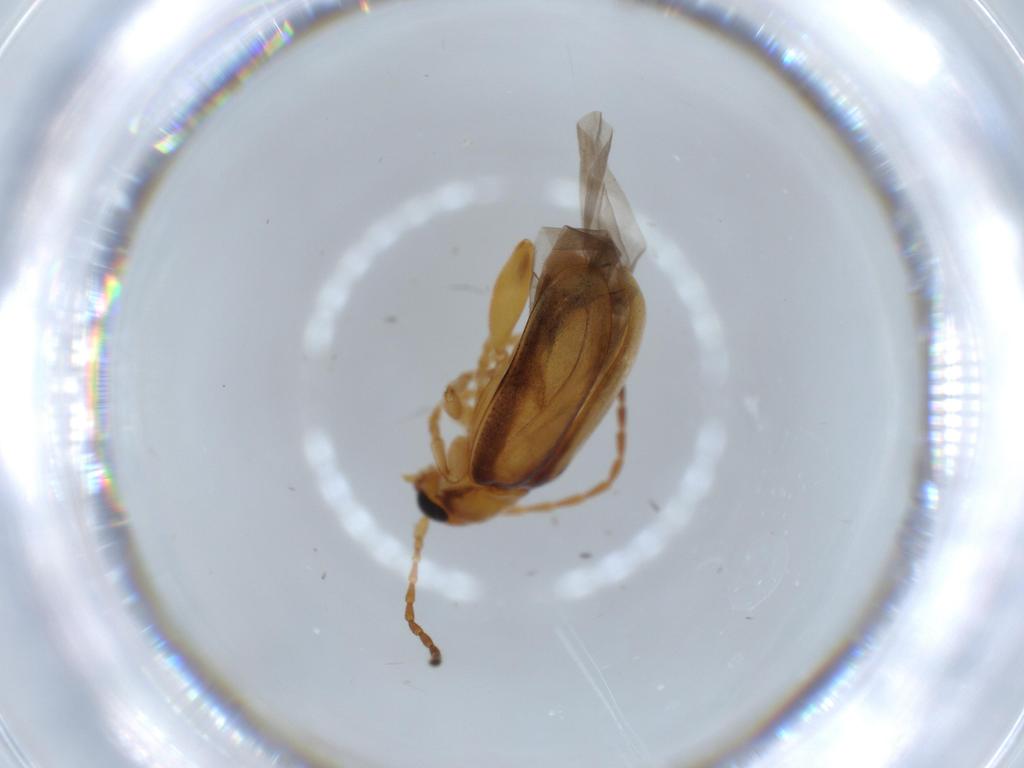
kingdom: Animalia
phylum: Arthropoda
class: Insecta
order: Coleoptera
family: Chrysomelidae
